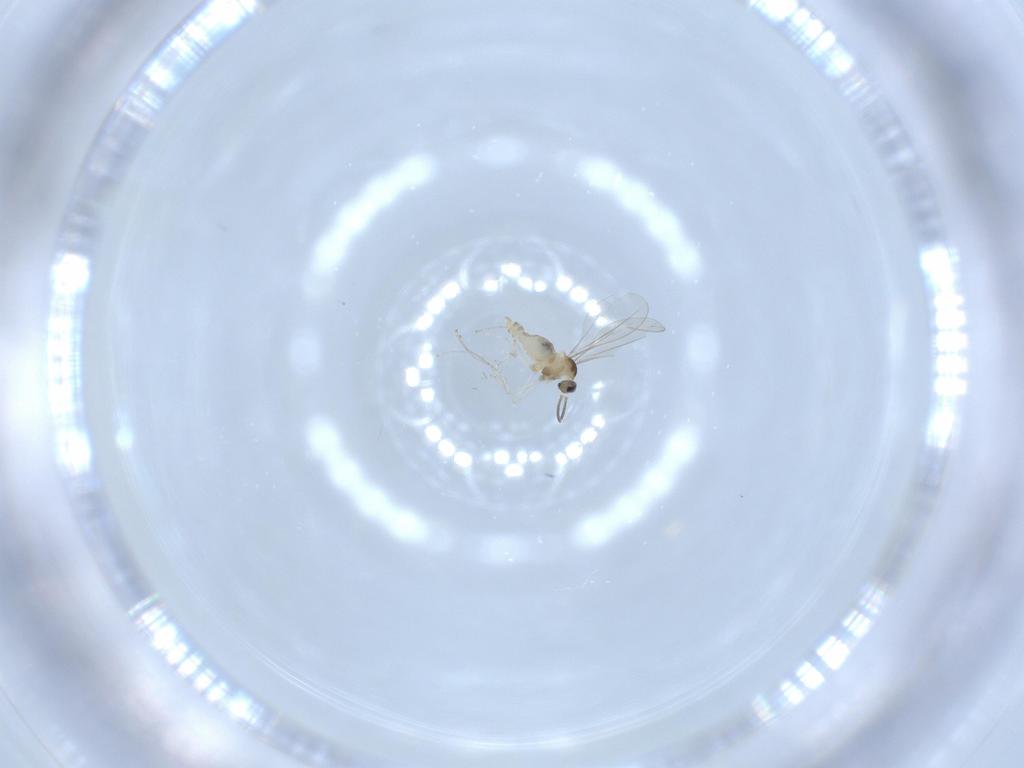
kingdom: Animalia
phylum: Arthropoda
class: Insecta
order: Diptera
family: Cecidomyiidae
